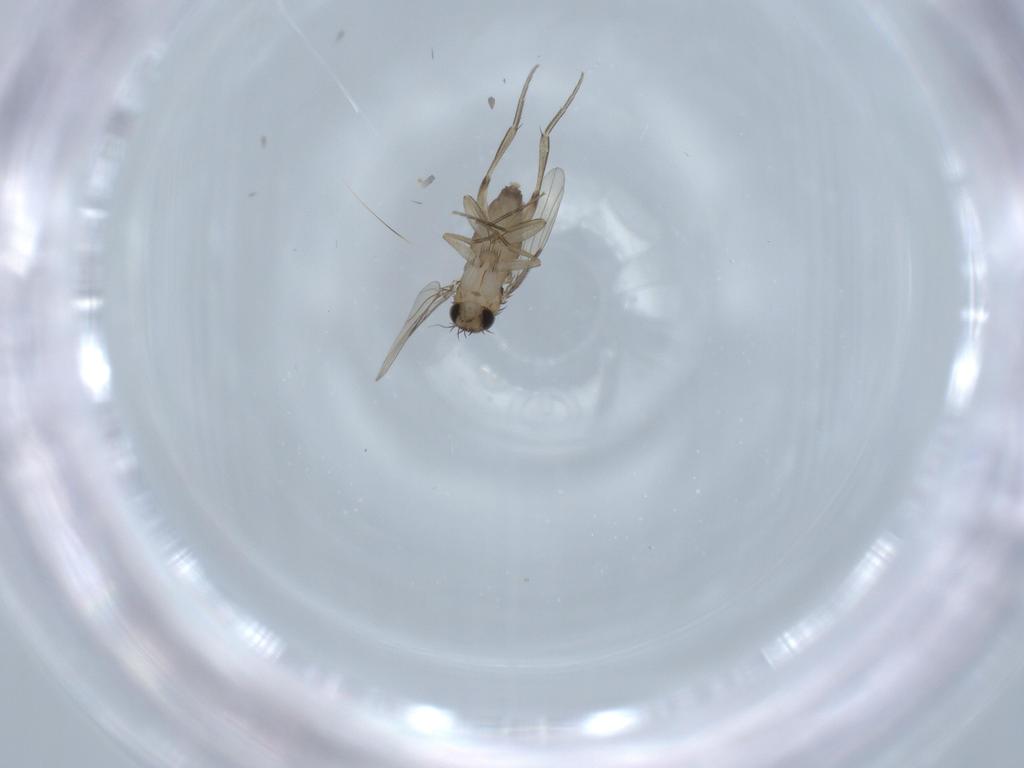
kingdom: Animalia
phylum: Arthropoda
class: Insecta
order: Diptera
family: Phoridae
